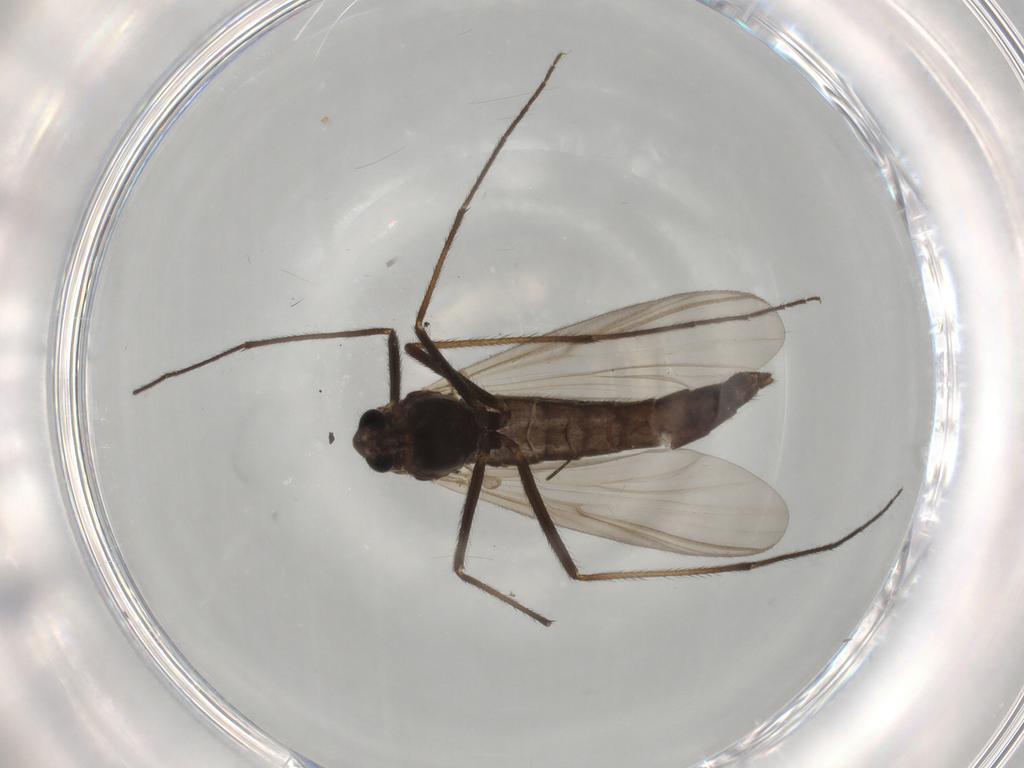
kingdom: Animalia
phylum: Arthropoda
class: Insecta
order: Diptera
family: Chironomidae
